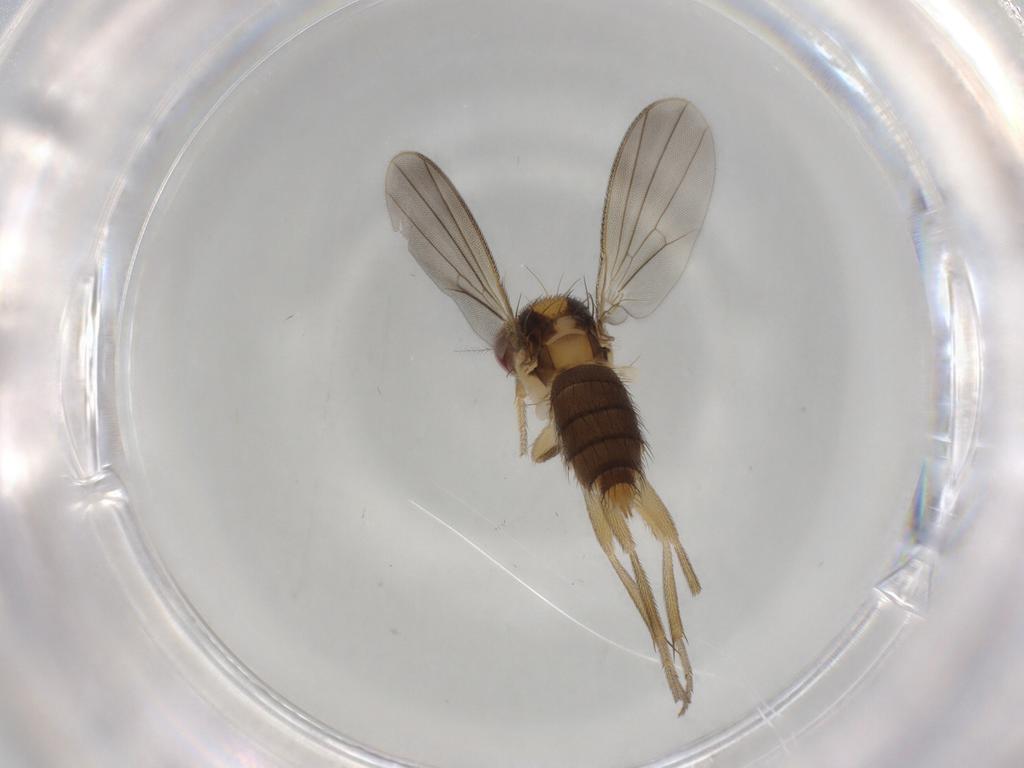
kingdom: Animalia
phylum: Arthropoda
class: Insecta
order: Diptera
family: Agromyzidae
